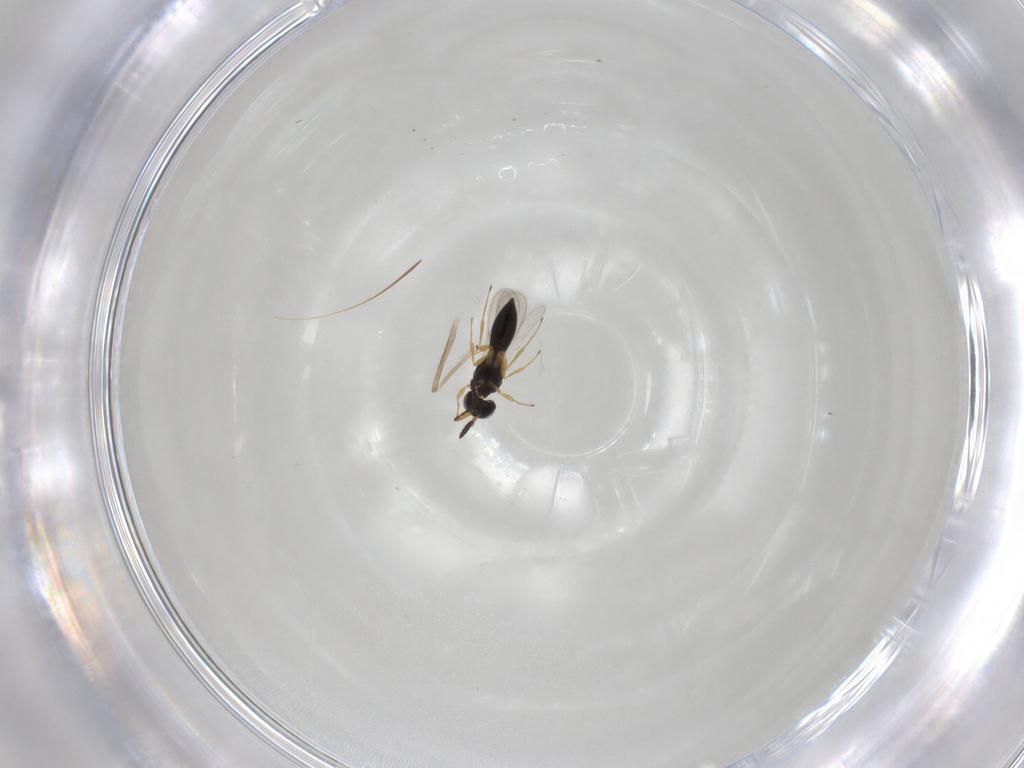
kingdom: Animalia
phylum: Arthropoda
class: Insecta
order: Hymenoptera
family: Scelionidae
